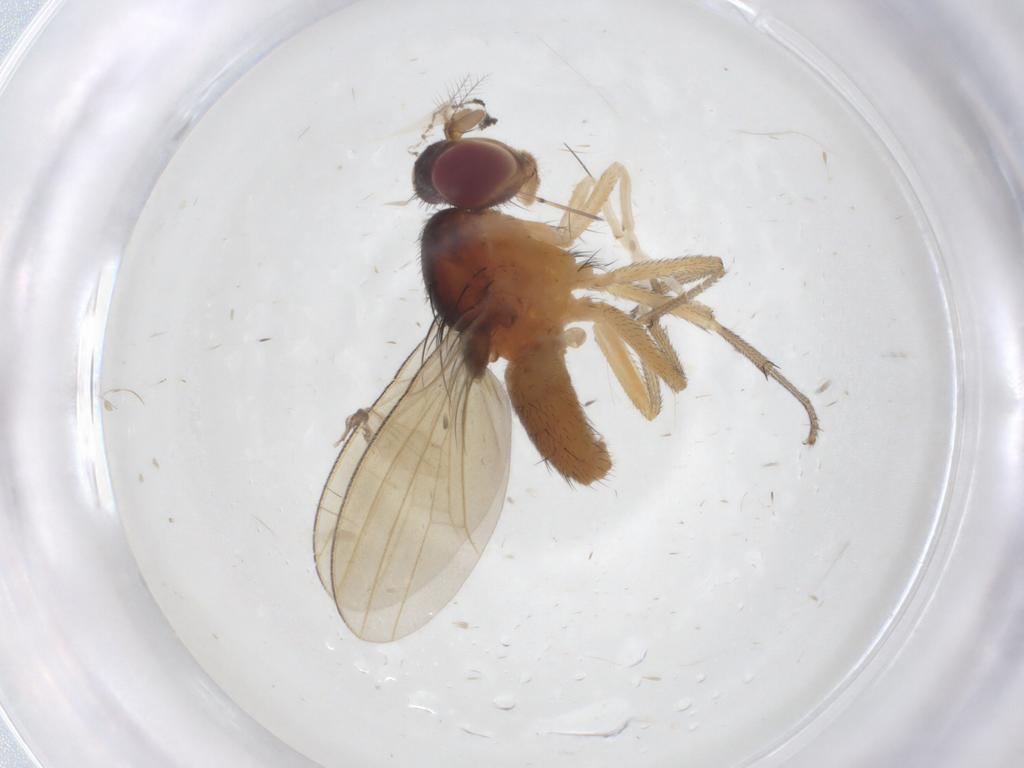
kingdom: Animalia
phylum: Arthropoda
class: Insecta
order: Diptera
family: Lauxaniidae
